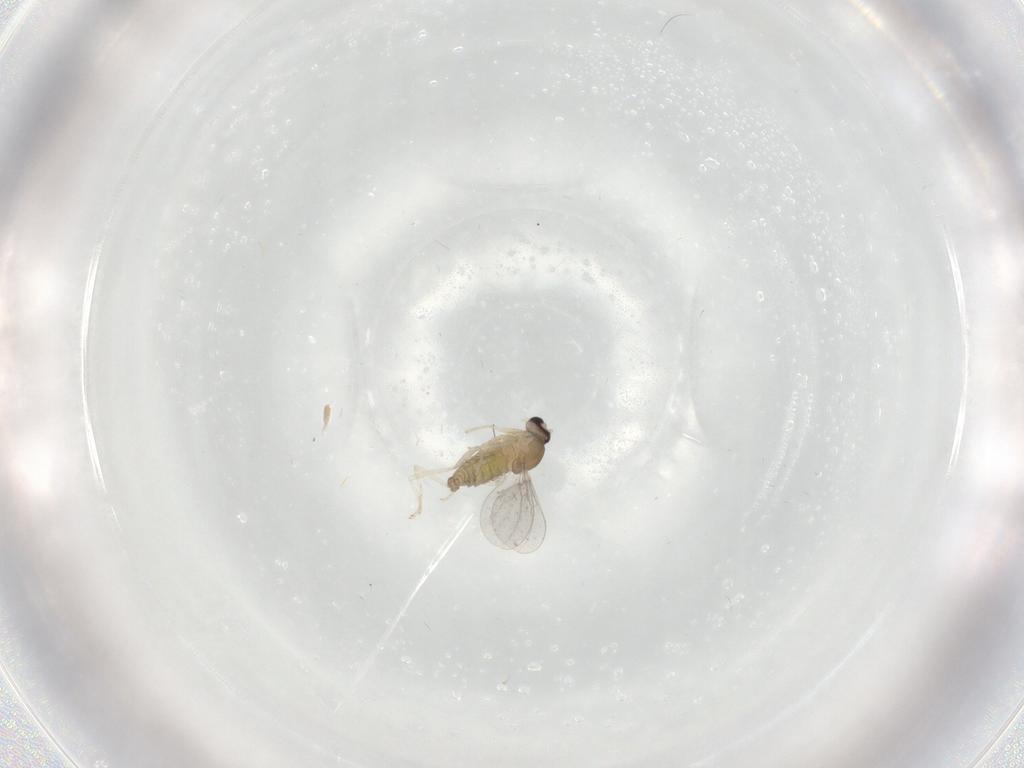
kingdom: Animalia
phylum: Arthropoda
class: Insecta
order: Diptera
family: Cecidomyiidae
